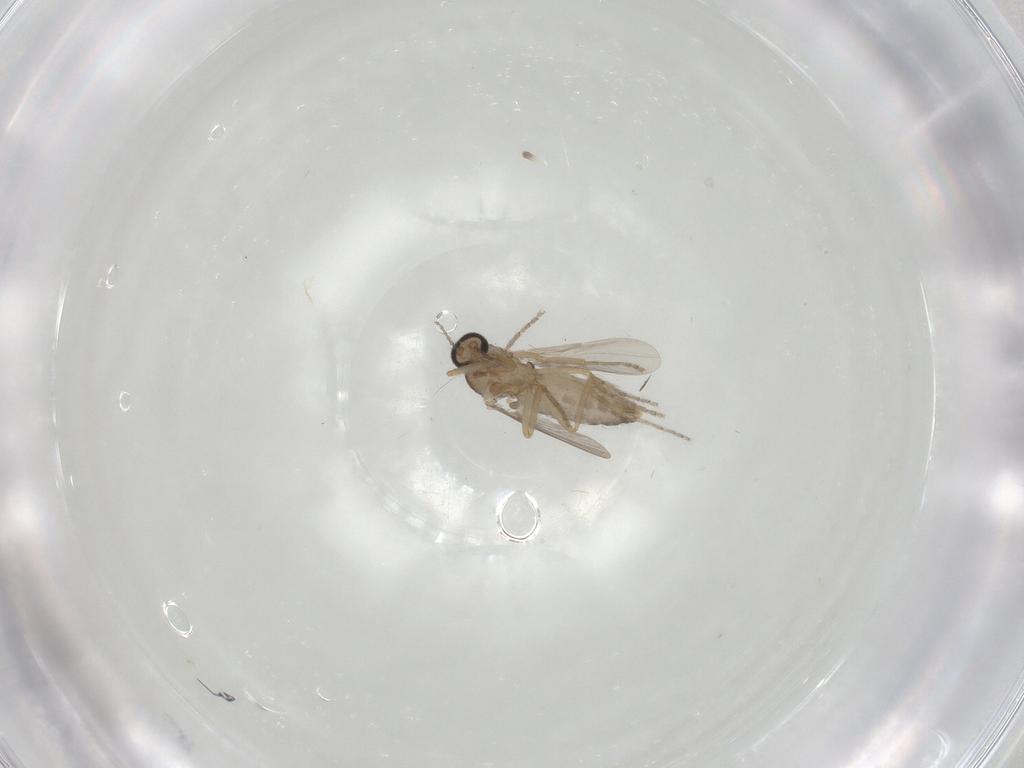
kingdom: Animalia
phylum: Arthropoda
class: Insecta
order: Diptera
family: Ceratopogonidae
